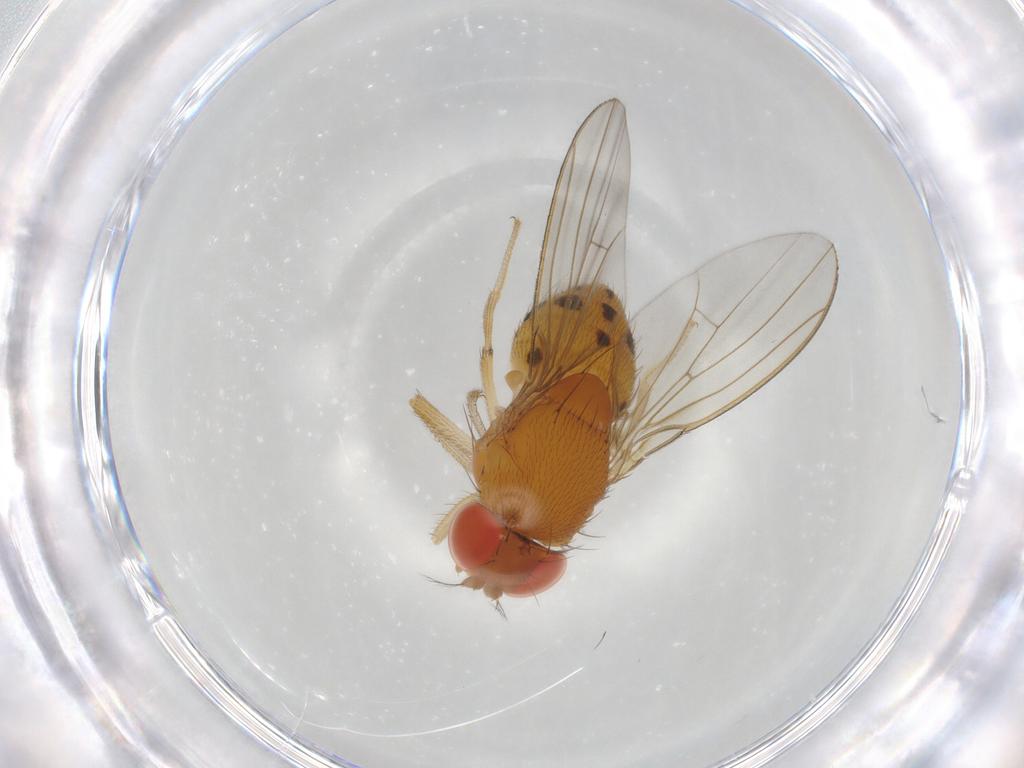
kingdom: Animalia
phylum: Arthropoda
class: Insecta
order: Diptera
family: Drosophilidae
